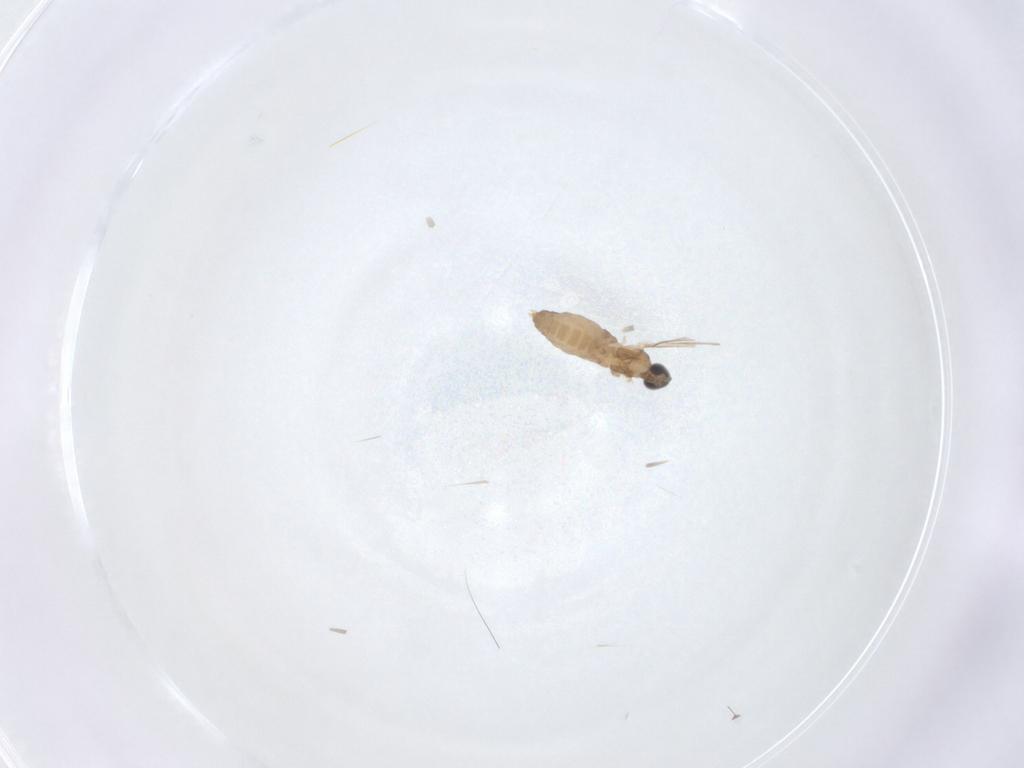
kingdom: Animalia
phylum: Arthropoda
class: Insecta
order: Diptera
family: Cecidomyiidae
